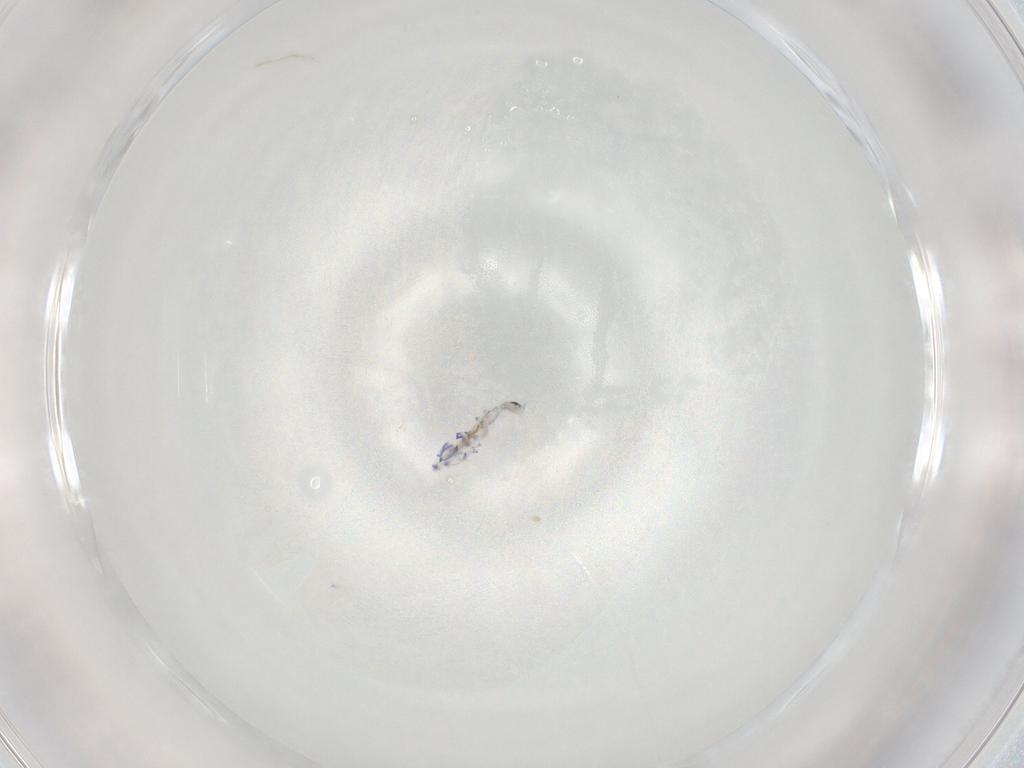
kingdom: Animalia
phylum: Arthropoda
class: Collembola
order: Entomobryomorpha
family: Entomobryidae
